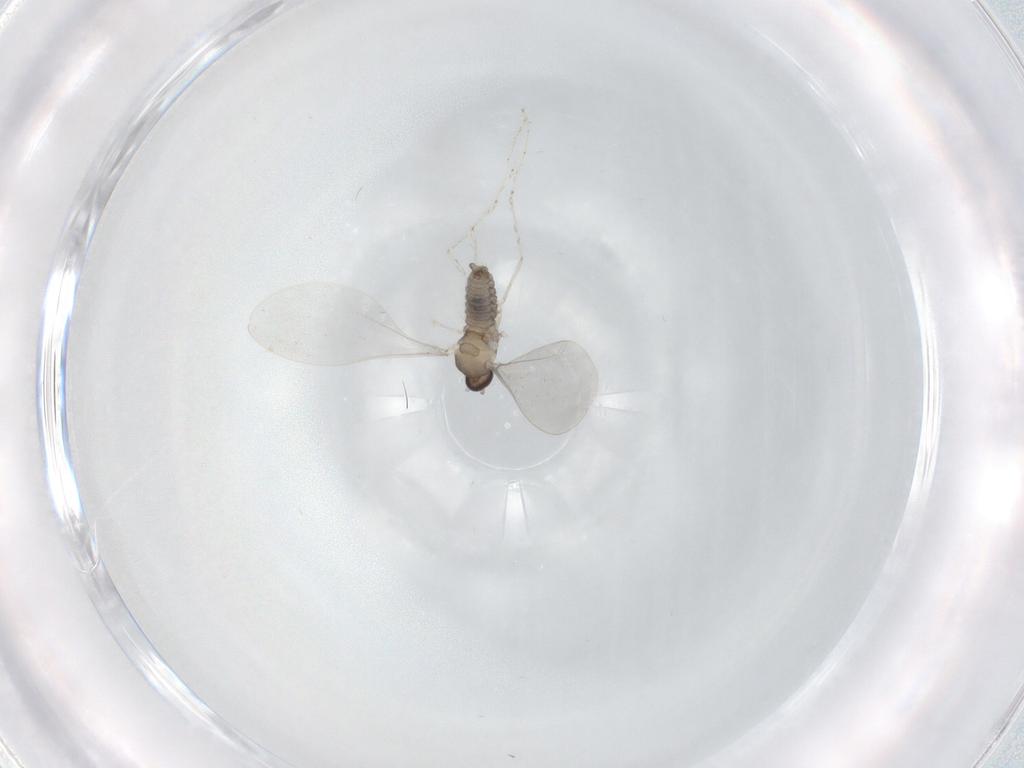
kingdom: Animalia
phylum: Arthropoda
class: Insecta
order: Diptera
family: Cecidomyiidae
